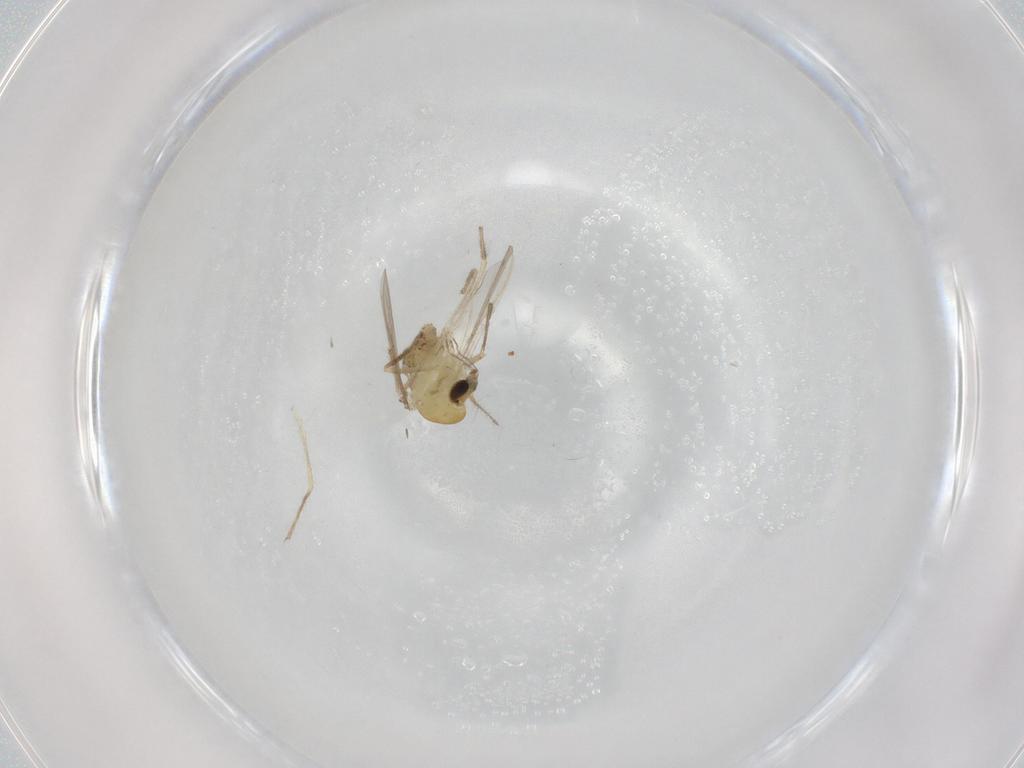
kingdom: Animalia
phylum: Arthropoda
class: Insecta
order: Diptera
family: Chironomidae
